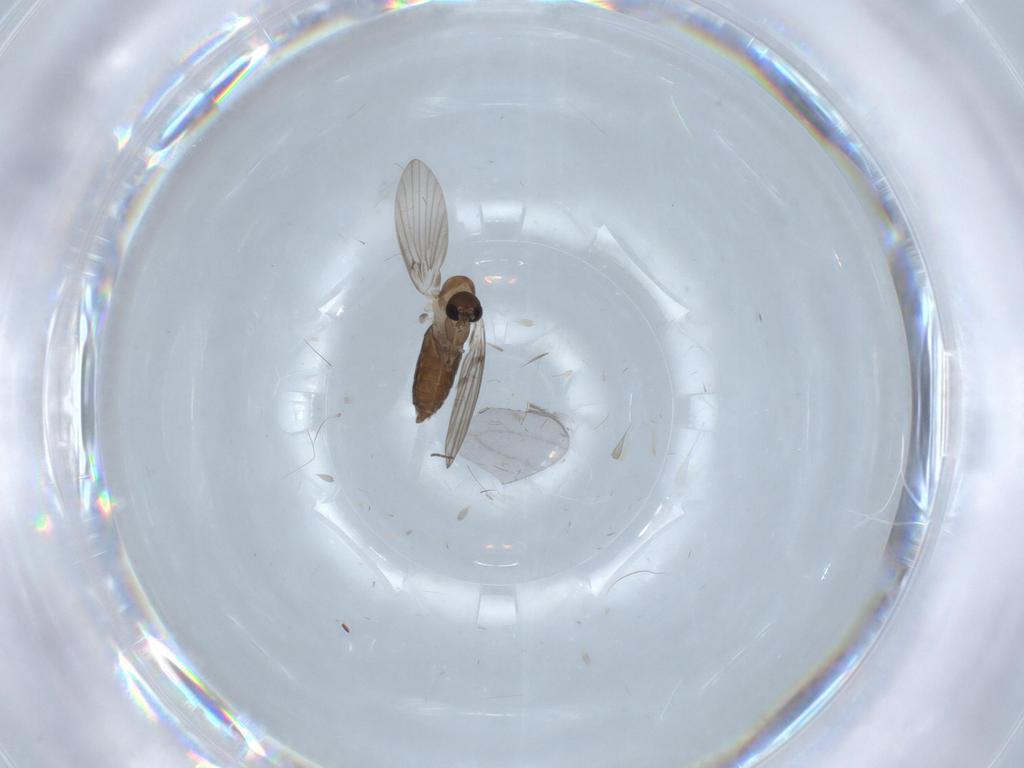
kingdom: Animalia
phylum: Arthropoda
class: Insecta
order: Diptera
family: Psychodidae
